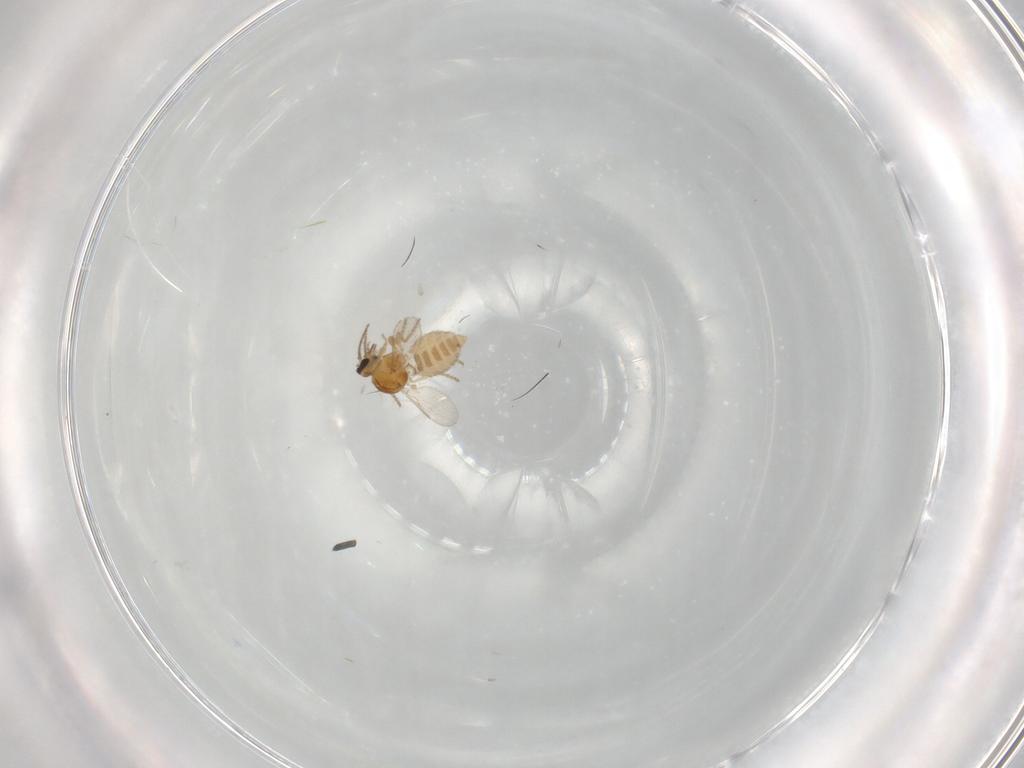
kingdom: Animalia
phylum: Arthropoda
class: Insecta
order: Diptera
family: Ceratopogonidae
